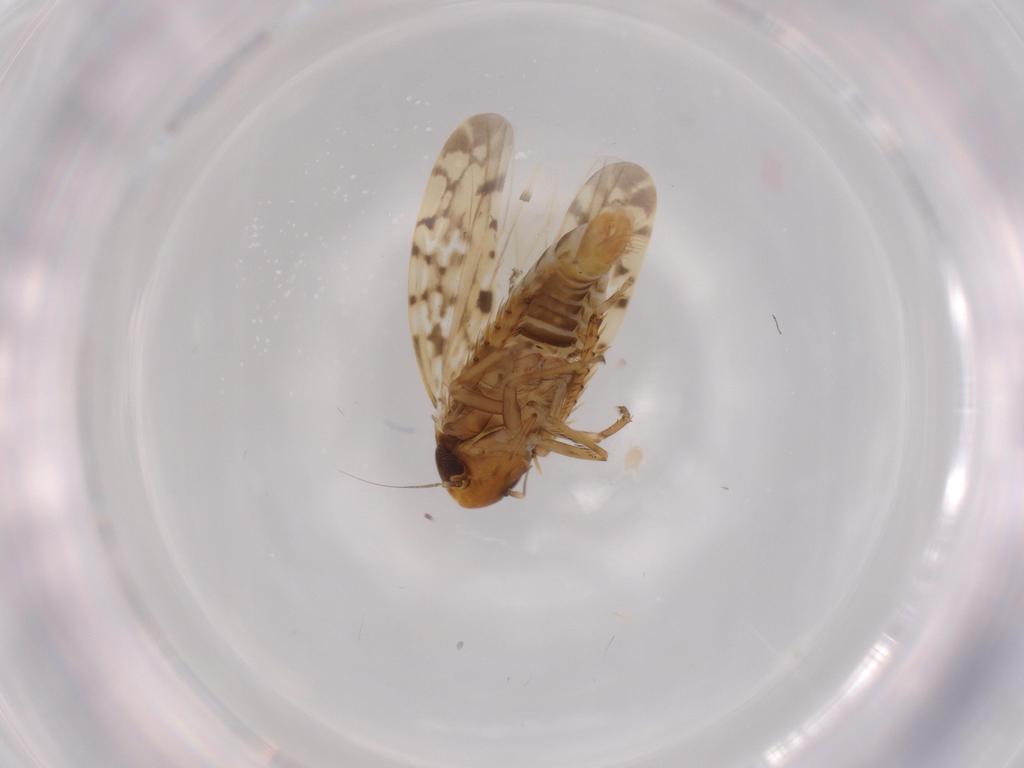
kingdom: Animalia
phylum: Arthropoda
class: Insecta
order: Hemiptera
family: Cicadellidae
